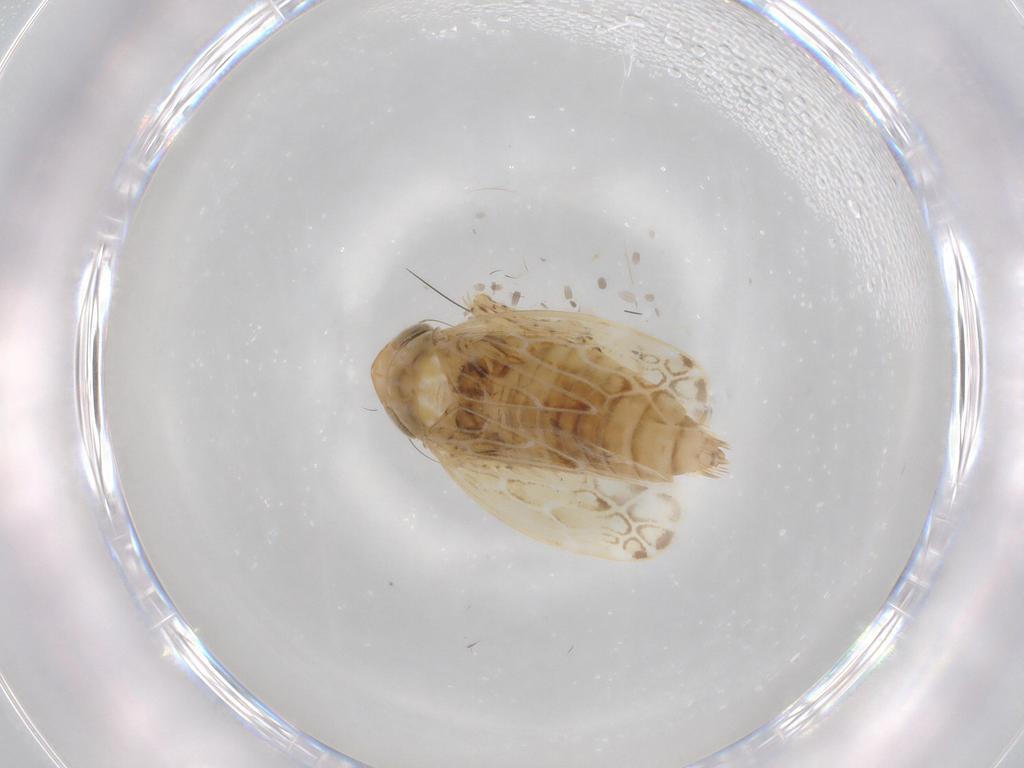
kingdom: Animalia
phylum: Arthropoda
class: Insecta
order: Hemiptera
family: Cicadellidae
